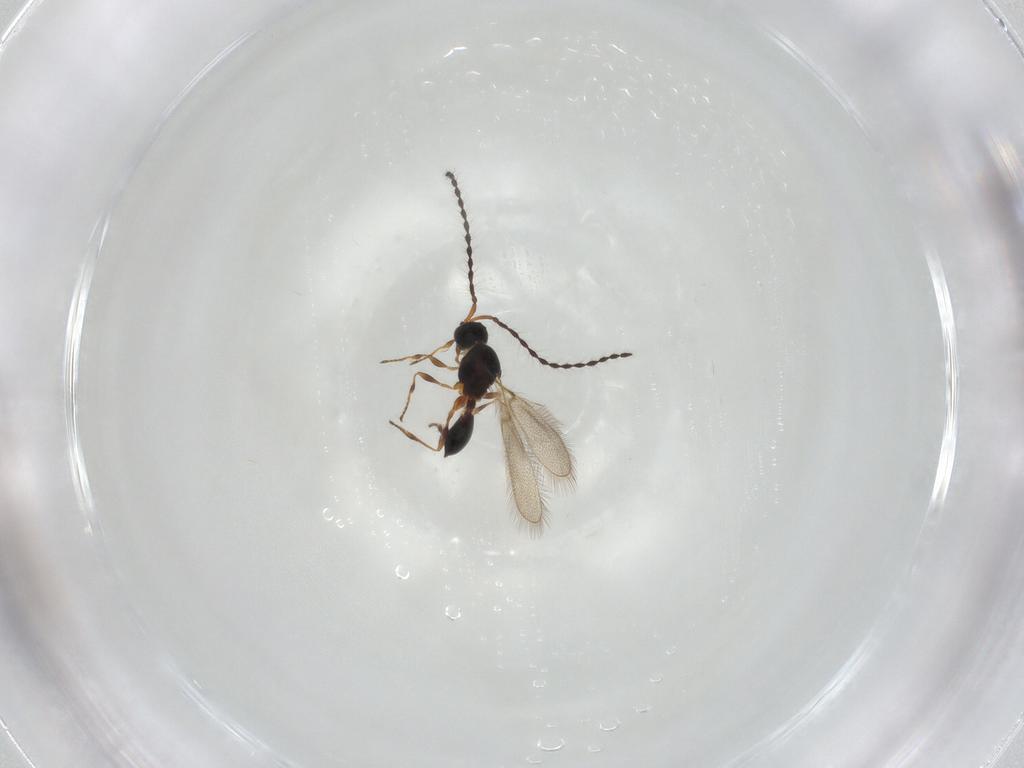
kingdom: Animalia
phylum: Arthropoda
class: Insecta
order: Hymenoptera
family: Diapriidae
